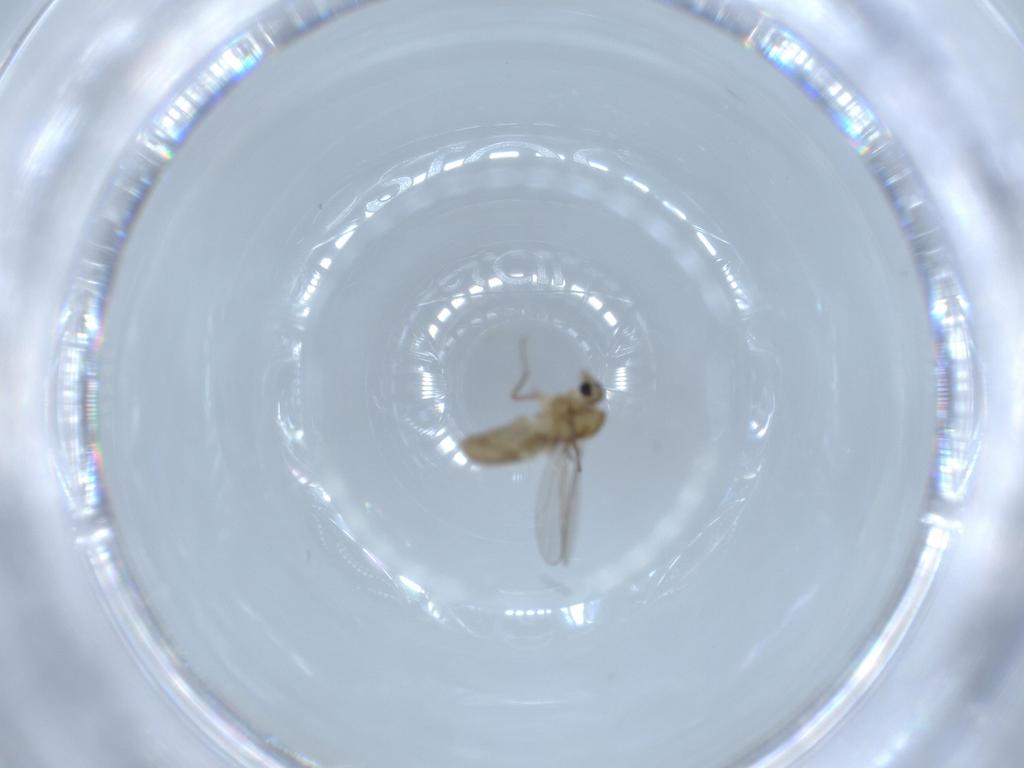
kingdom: Animalia
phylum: Arthropoda
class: Insecta
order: Diptera
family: Chironomidae
